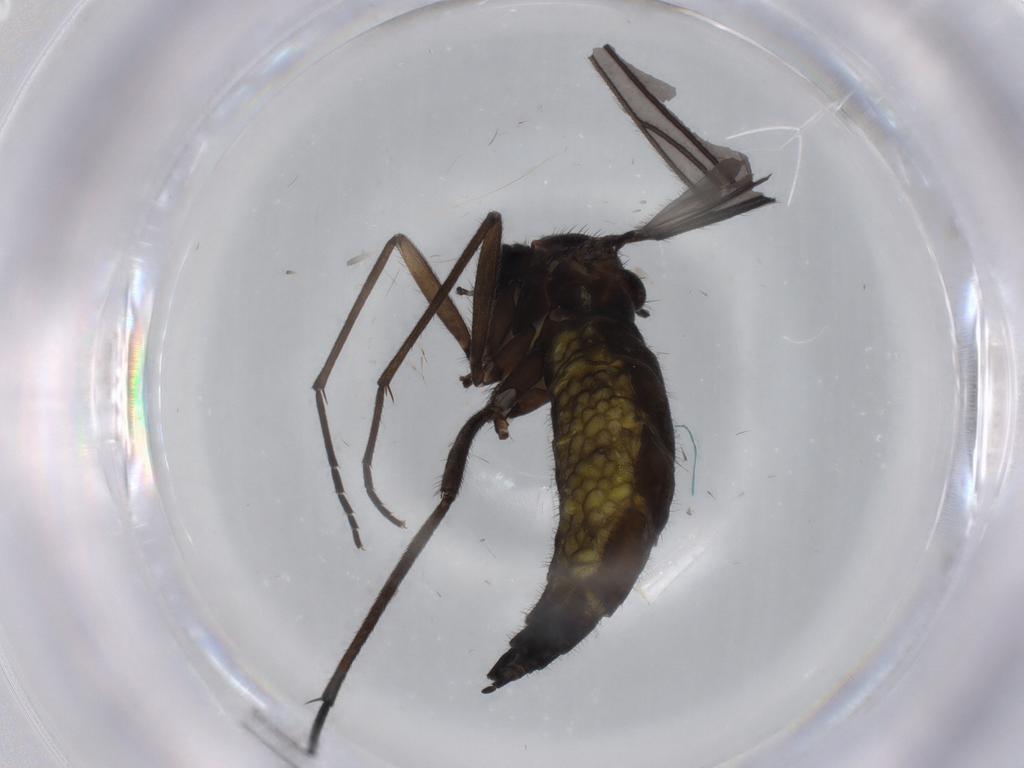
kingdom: Animalia
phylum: Arthropoda
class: Insecta
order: Diptera
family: Sciaridae
